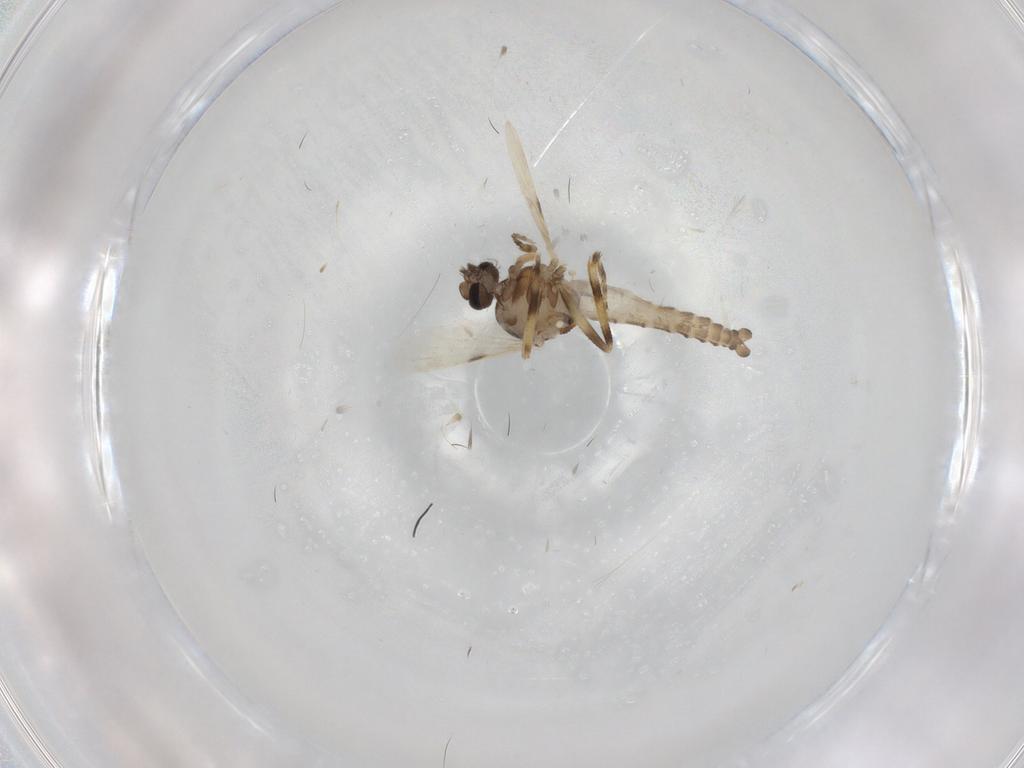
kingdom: Animalia
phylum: Arthropoda
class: Insecta
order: Diptera
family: Ceratopogonidae
